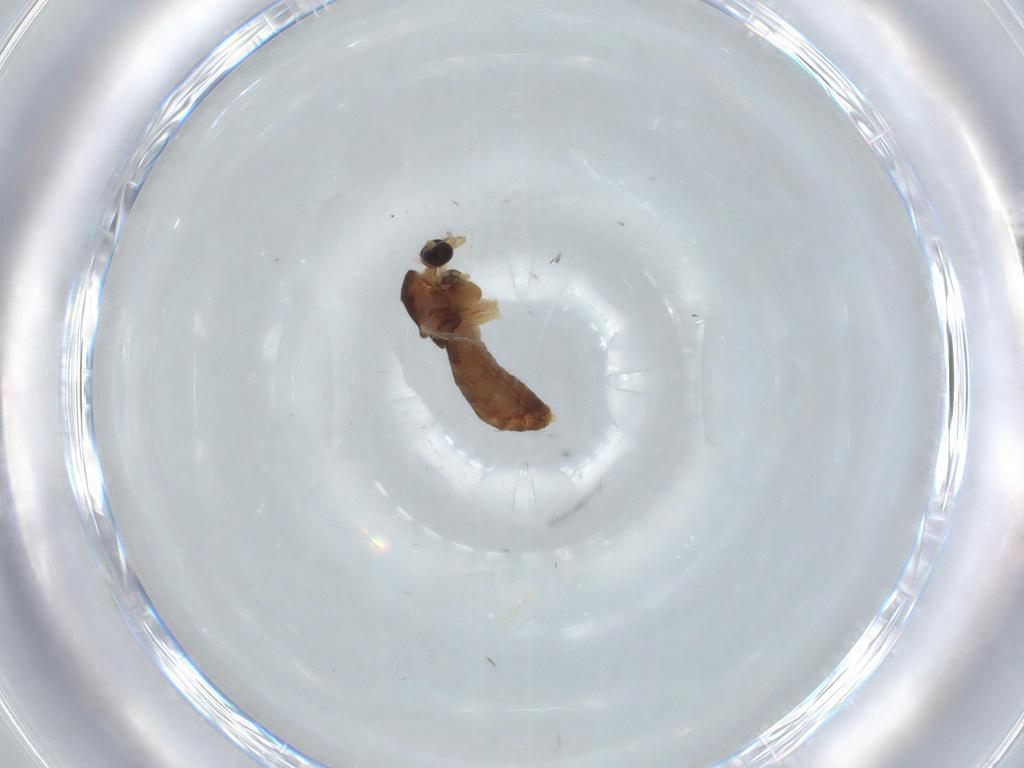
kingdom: Animalia
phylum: Arthropoda
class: Insecta
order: Diptera
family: Chironomidae
